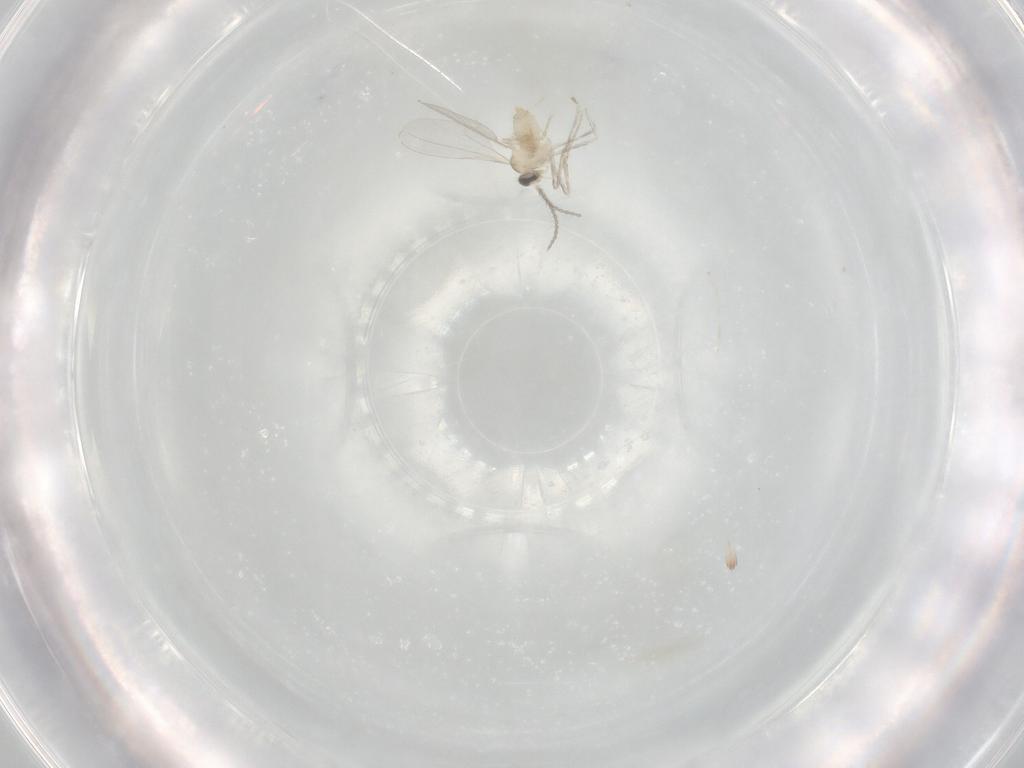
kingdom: Animalia
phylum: Arthropoda
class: Insecta
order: Diptera
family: Cecidomyiidae
